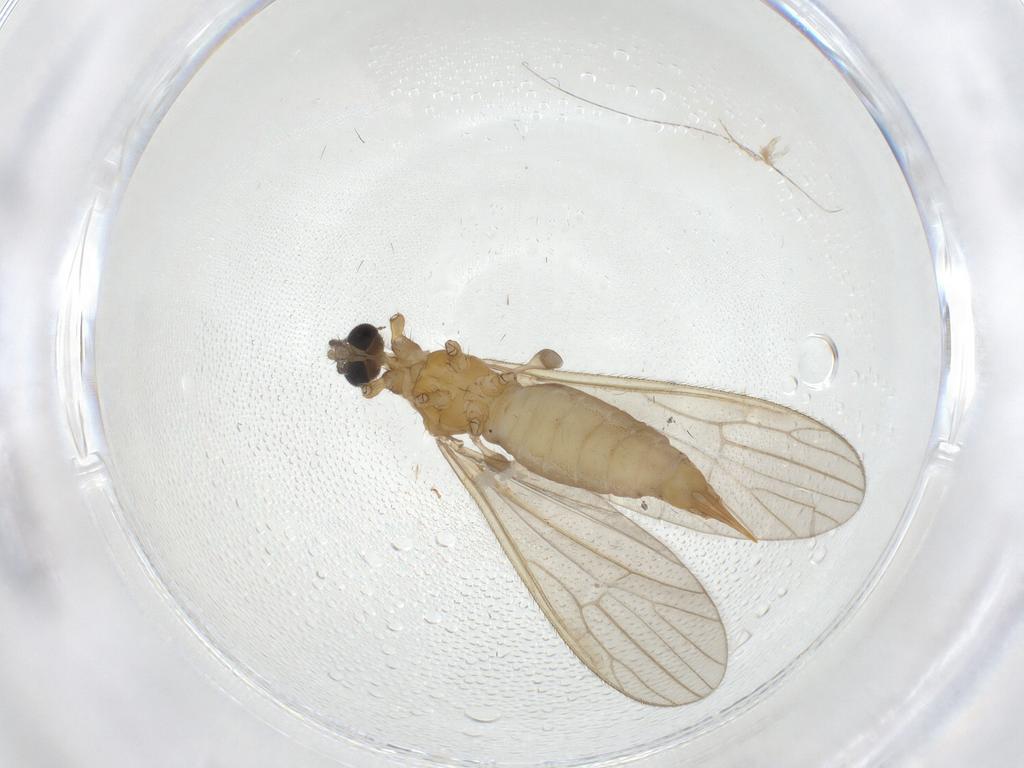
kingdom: Animalia
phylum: Arthropoda
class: Insecta
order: Diptera
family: Limoniidae
